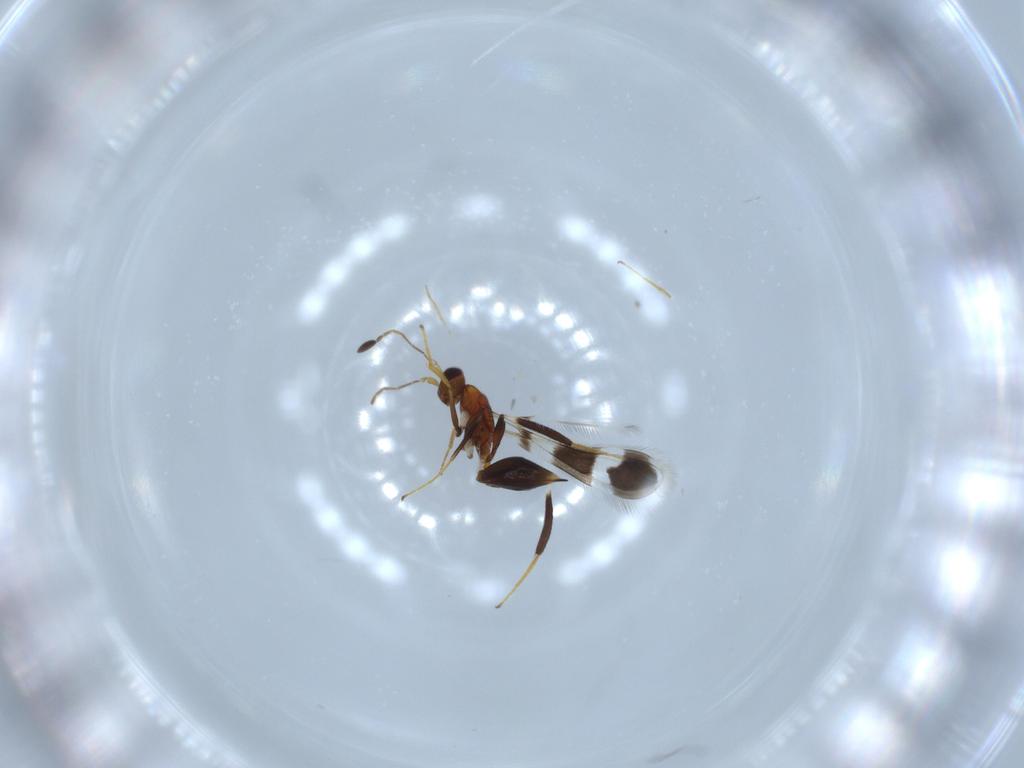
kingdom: Animalia
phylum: Arthropoda
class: Insecta
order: Hymenoptera
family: Mymaridae
